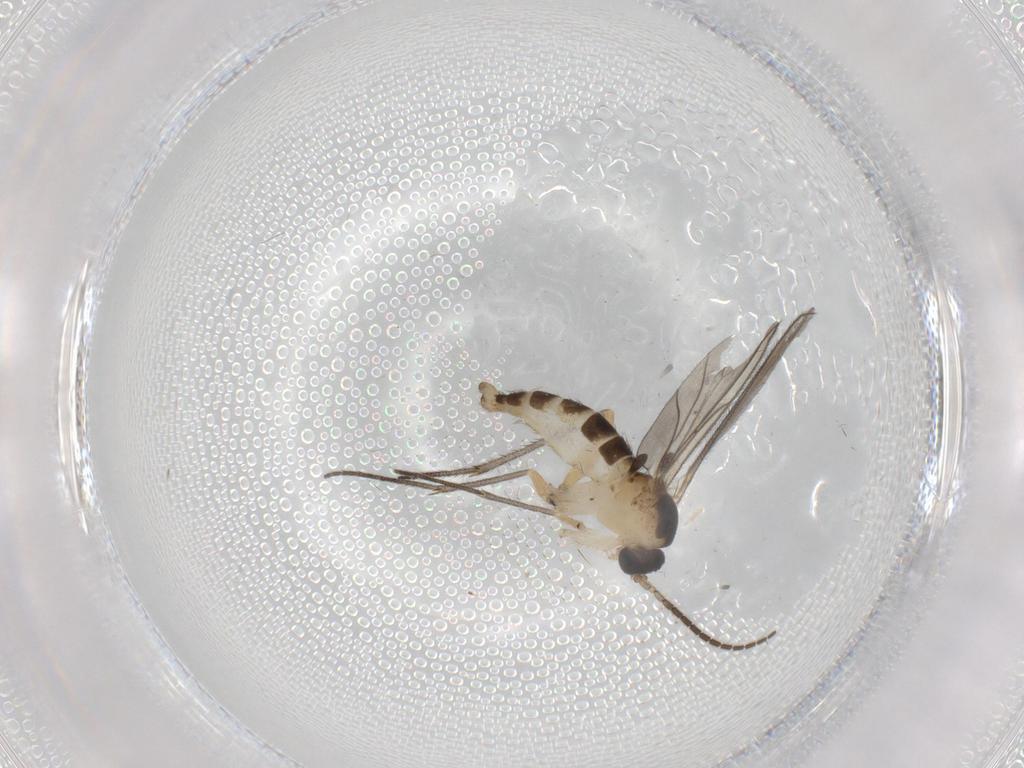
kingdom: Animalia
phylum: Arthropoda
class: Insecta
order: Diptera
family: Sciaridae
